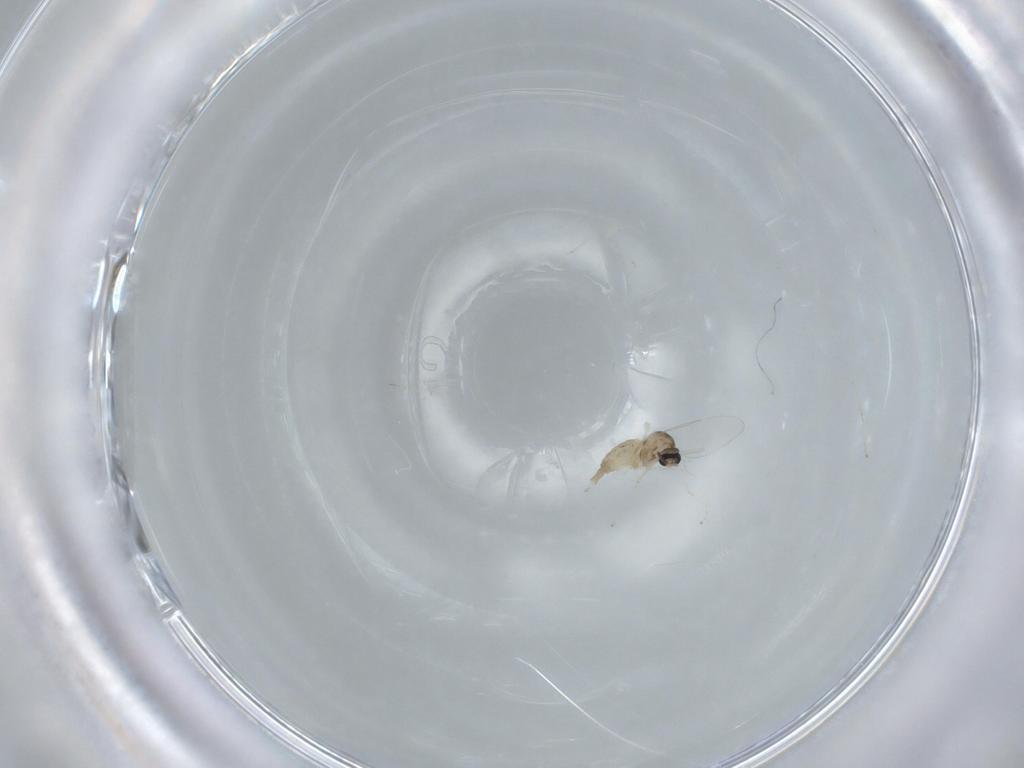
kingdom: Animalia
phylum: Arthropoda
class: Insecta
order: Diptera
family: Cecidomyiidae
